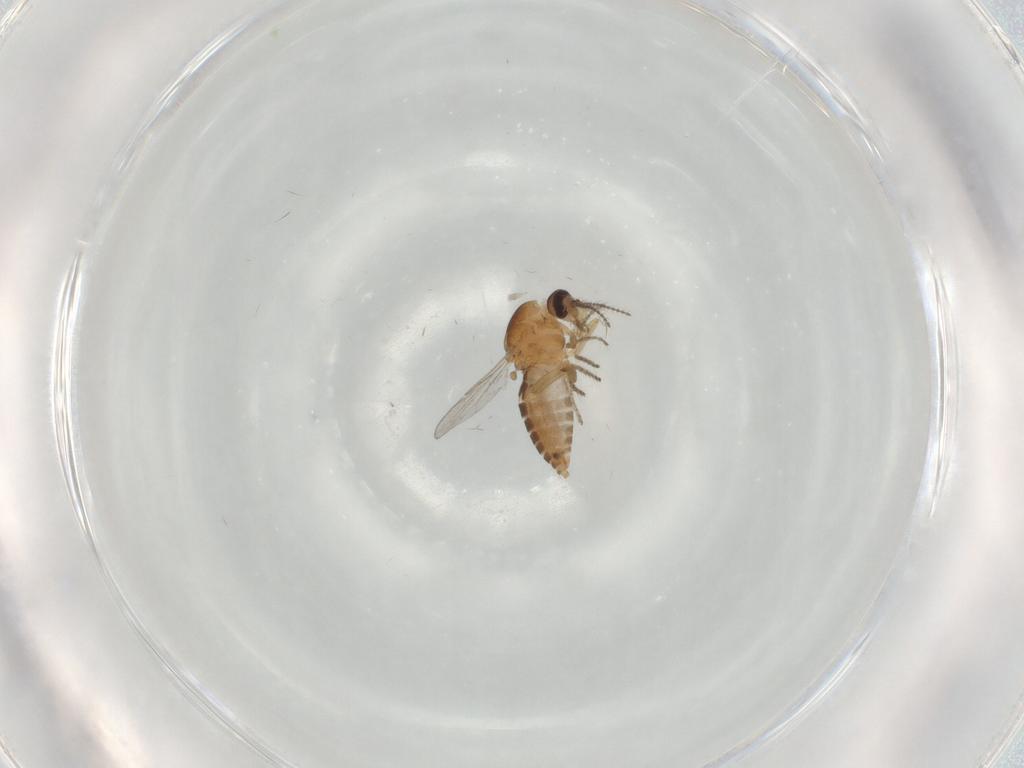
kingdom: Animalia
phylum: Arthropoda
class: Insecta
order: Diptera
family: Ceratopogonidae
